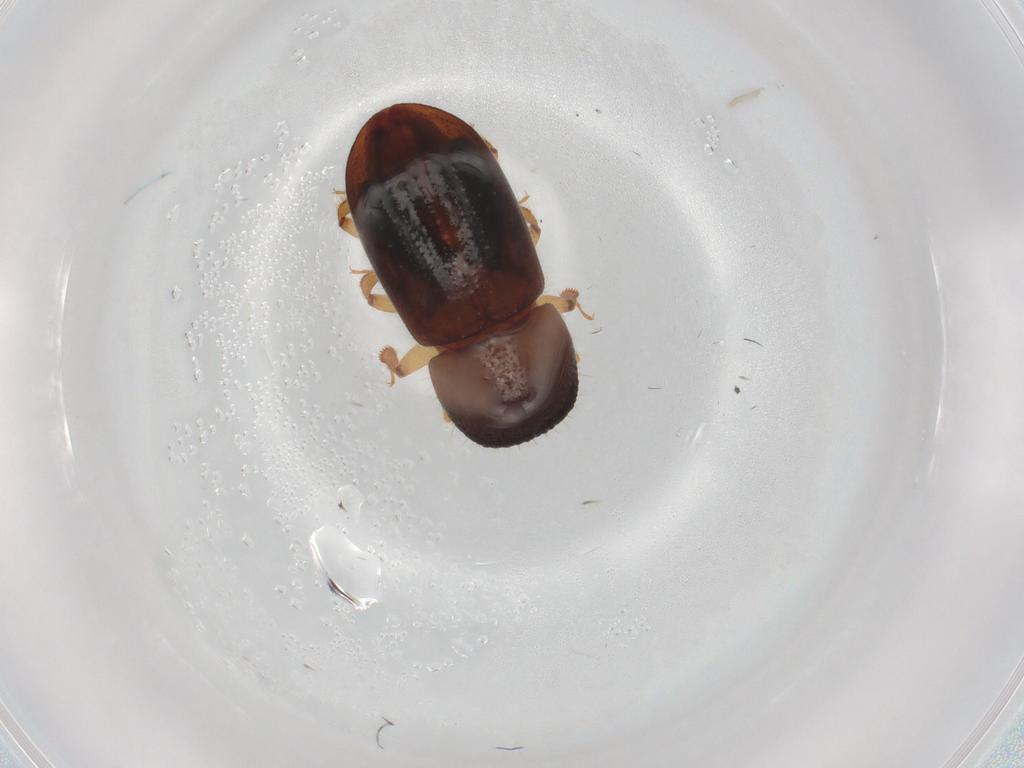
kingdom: Animalia
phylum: Arthropoda
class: Insecta
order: Coleoptera
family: Curculionidae
